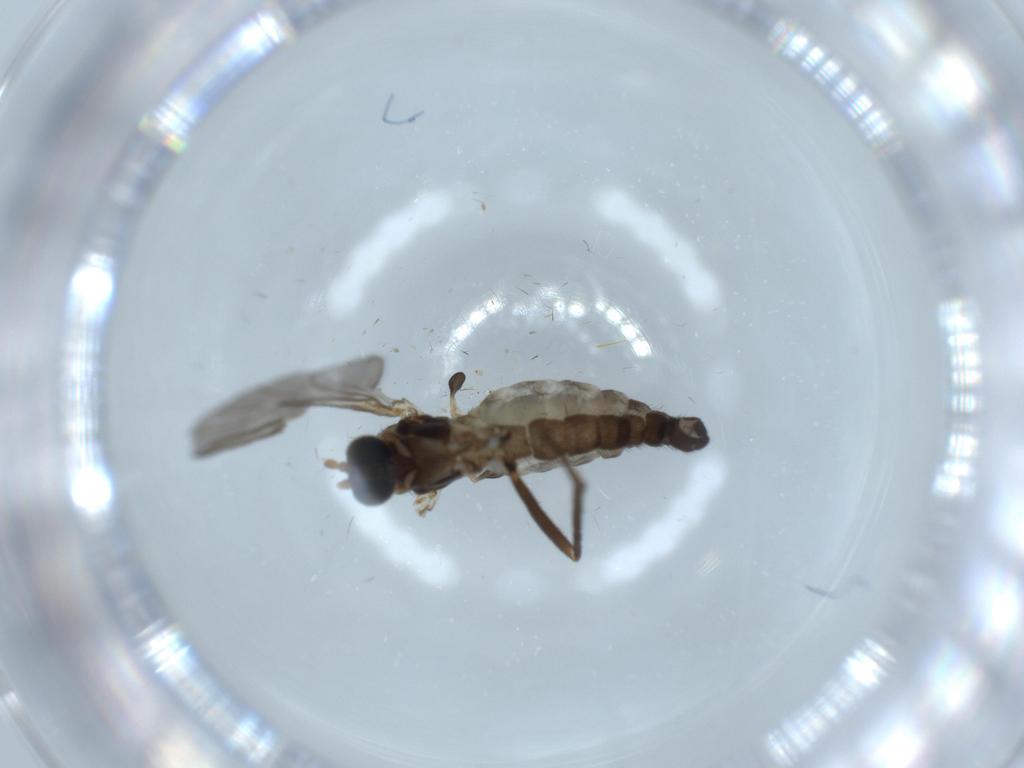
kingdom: Animalia
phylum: Arthropoda
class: Insecta
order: Diptera
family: Sciaridae
